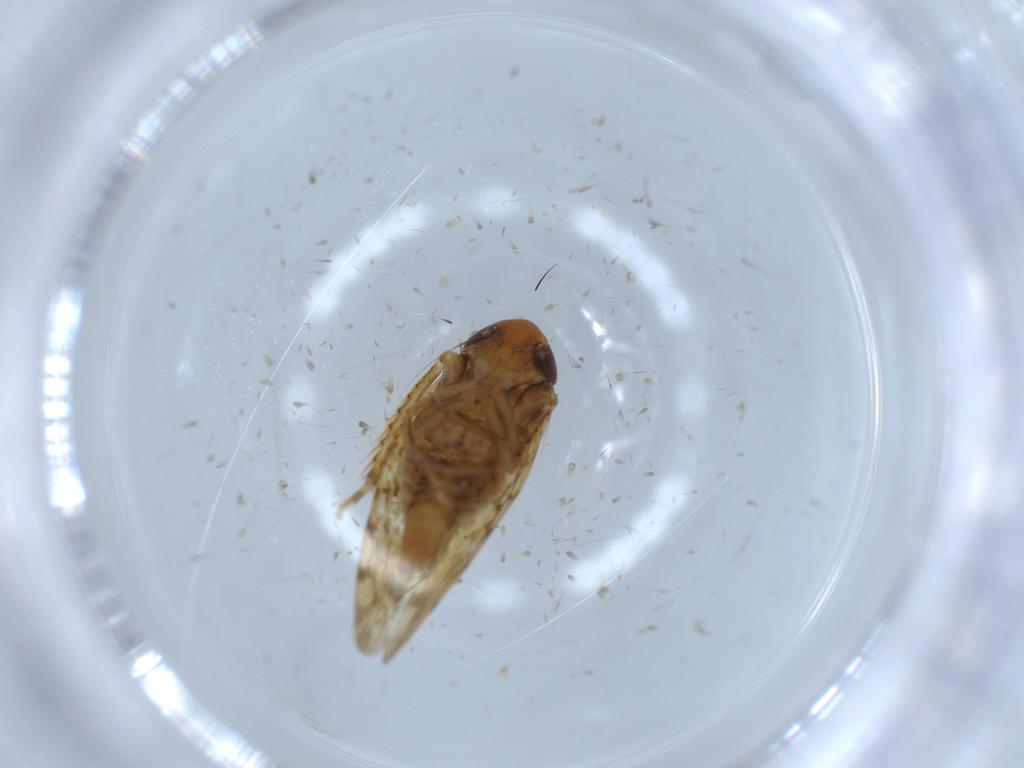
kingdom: Animalia
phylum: Arthropoda
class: Insecta
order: Hemiptera
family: Cicadellidae
